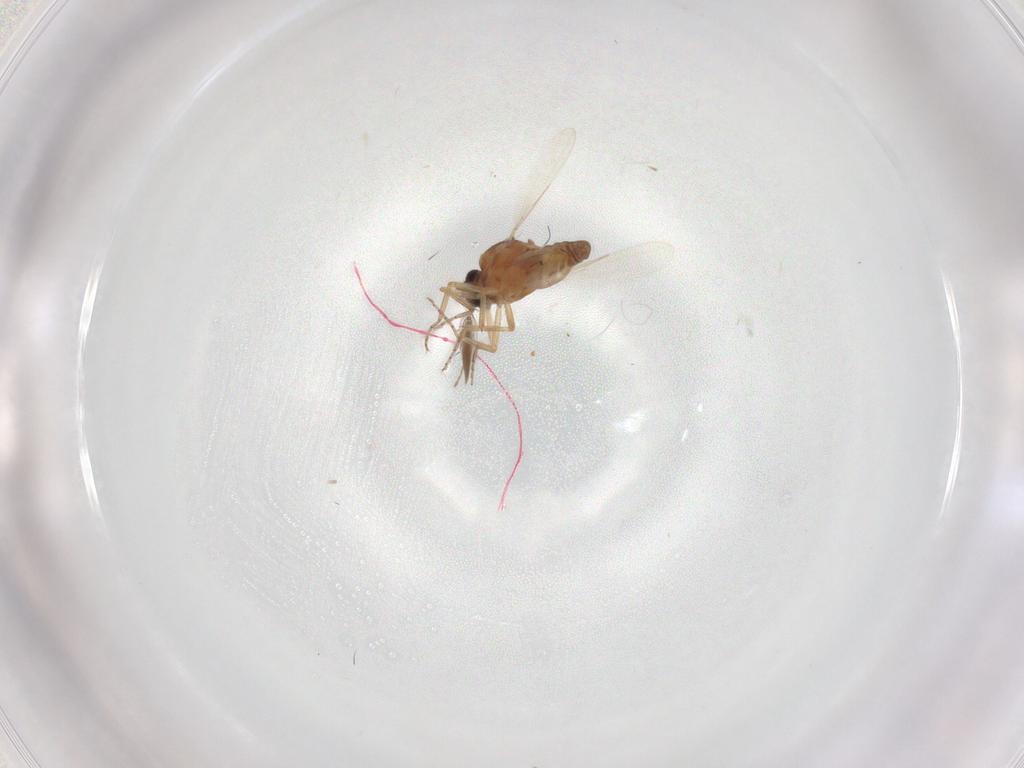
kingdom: Animalia
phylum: Arthropoda
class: Insecta
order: Diptera
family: Ceratopogonidae
